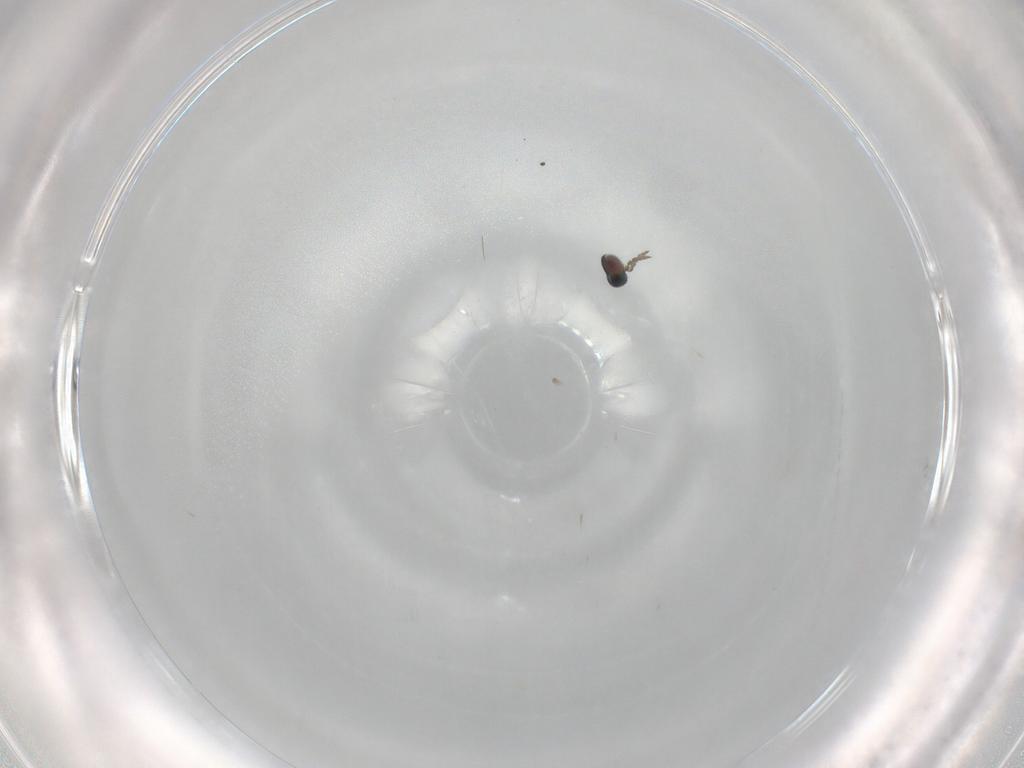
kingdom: Animalia
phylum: Arthropoda
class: Insecta
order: Hymenoptera
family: Eulophidae
